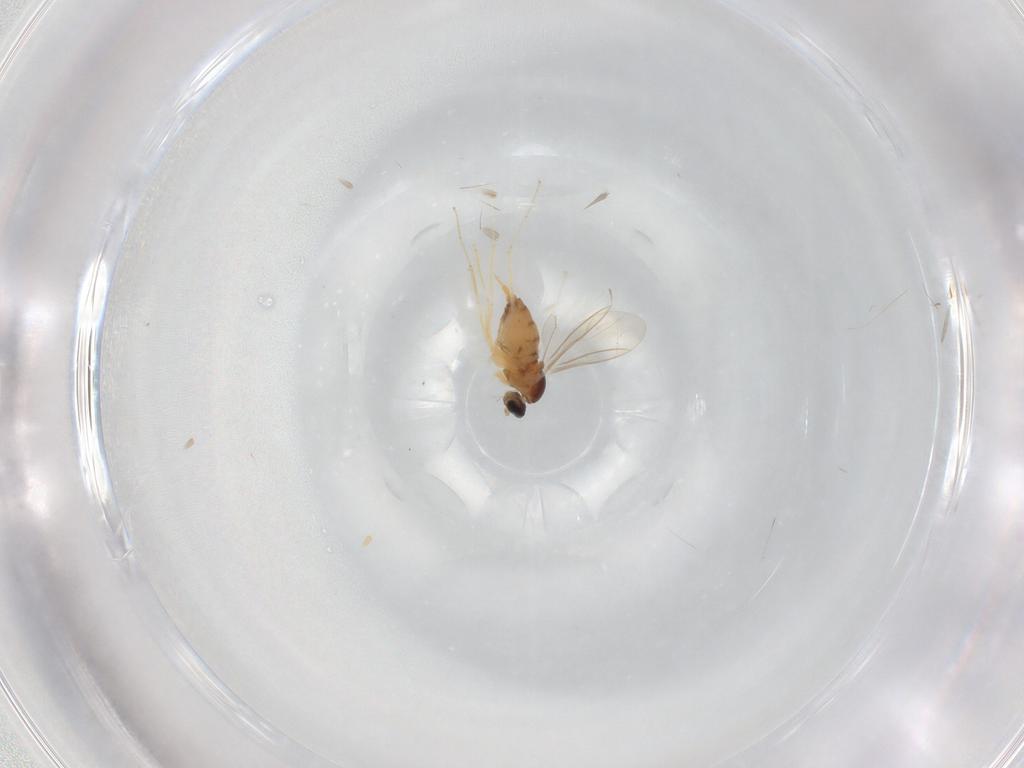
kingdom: Animalia
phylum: Arthropoda
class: Insecta
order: Diptera
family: Cecidomyiidae
